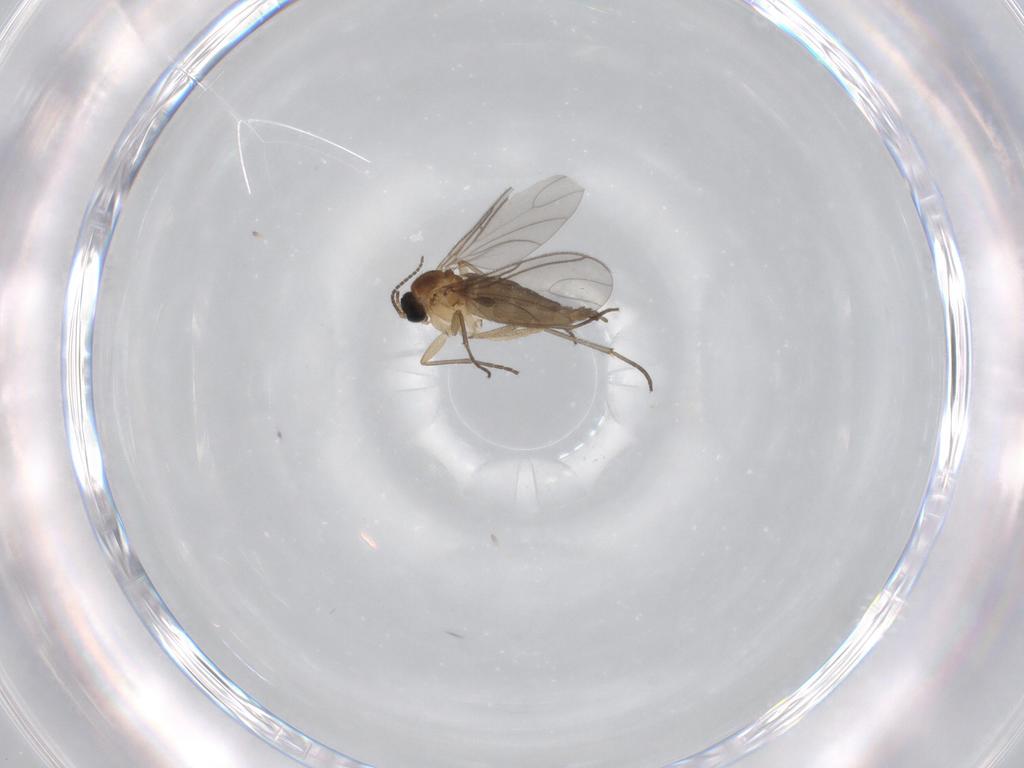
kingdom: Animalia
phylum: Arthropoda
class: Insecta
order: Diptera
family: Sciaridae
